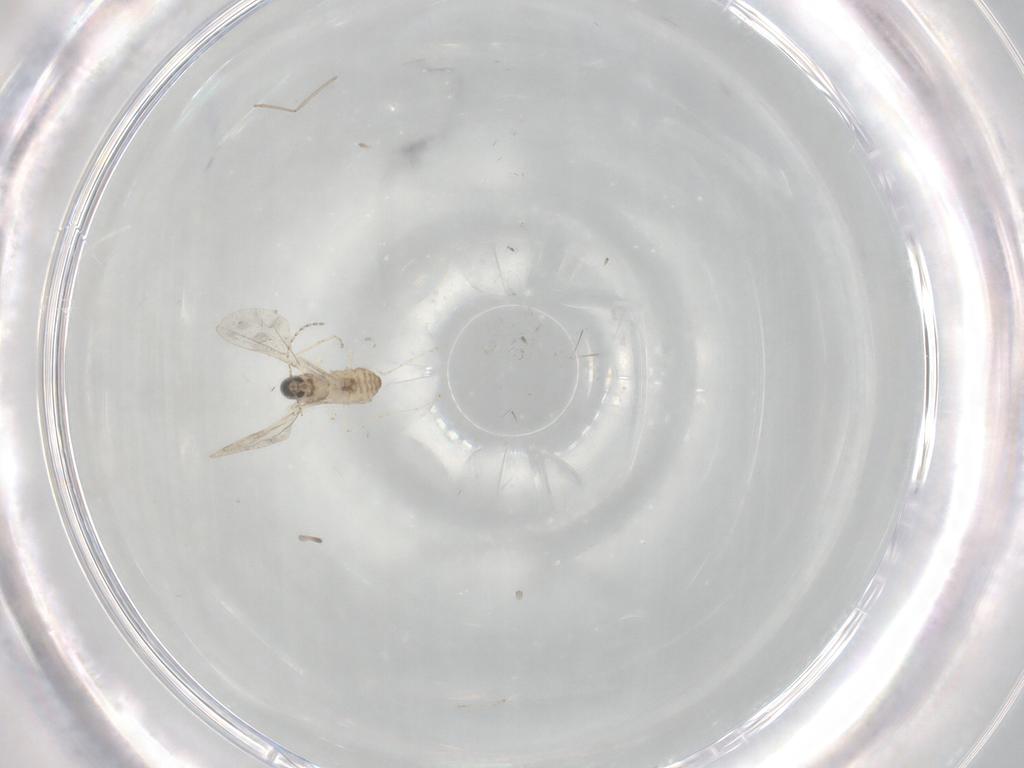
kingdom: Animalia
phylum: Arthropoda
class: Insecta
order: Diptera
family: Cecidomyiidae
